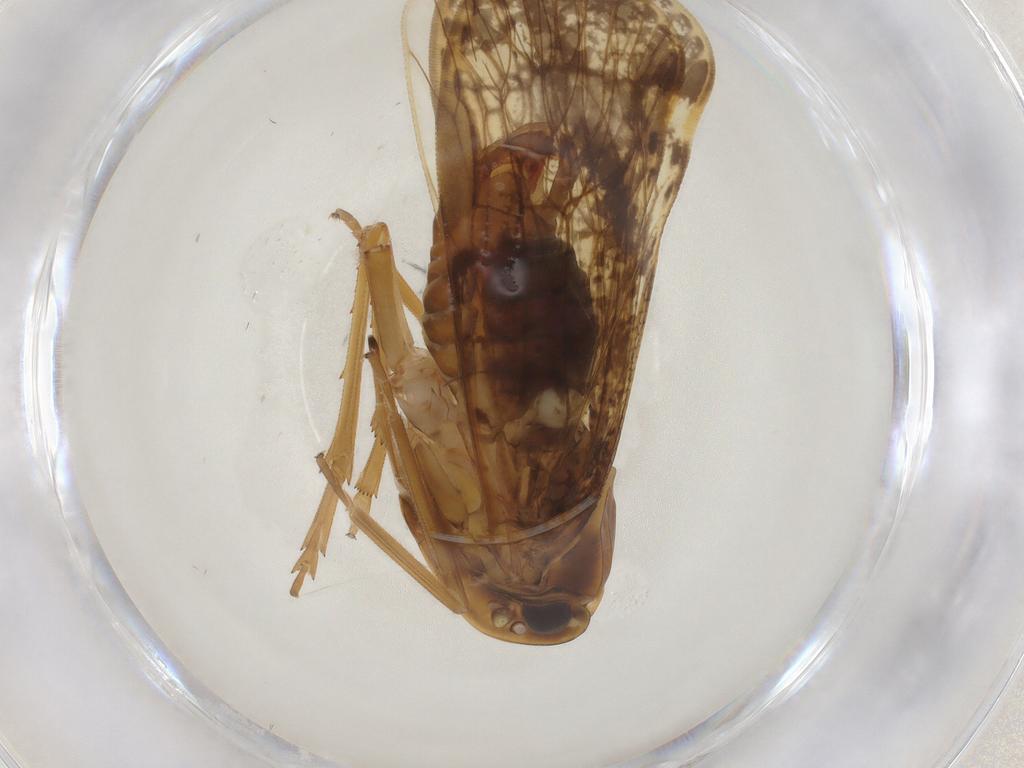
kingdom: Animalia
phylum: Arthropoda
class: Insecta
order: Hemiptera
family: Cixiidae
